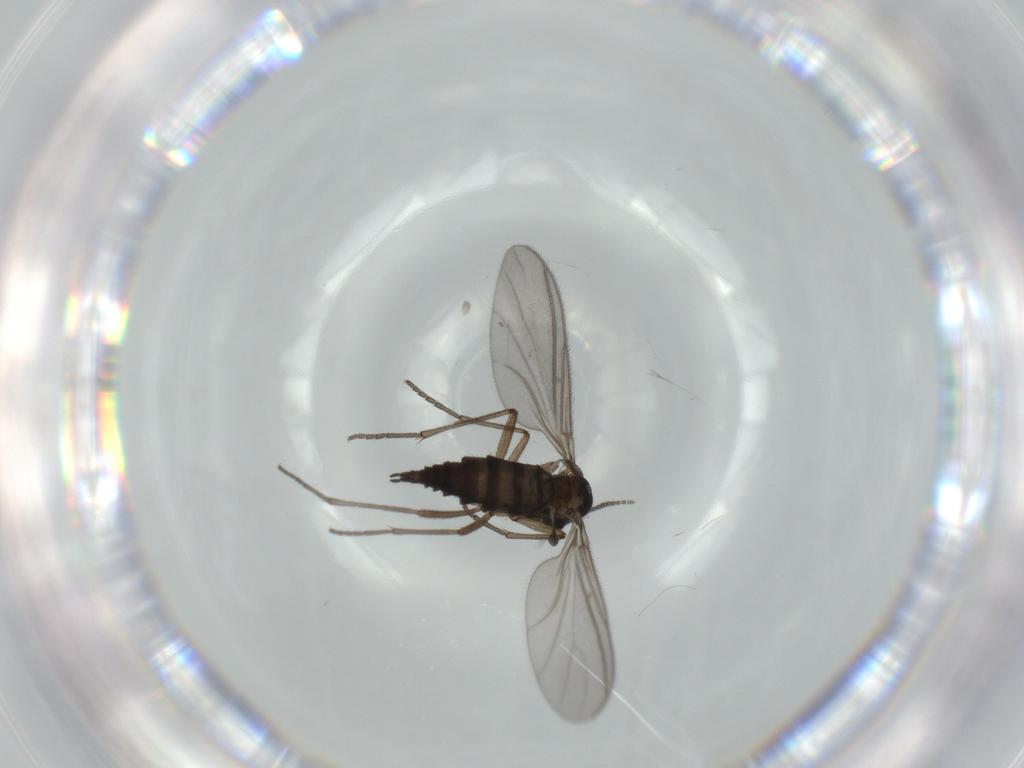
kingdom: Animalia
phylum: Arthropoda
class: Insecta
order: Diptera
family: Sciaridae
